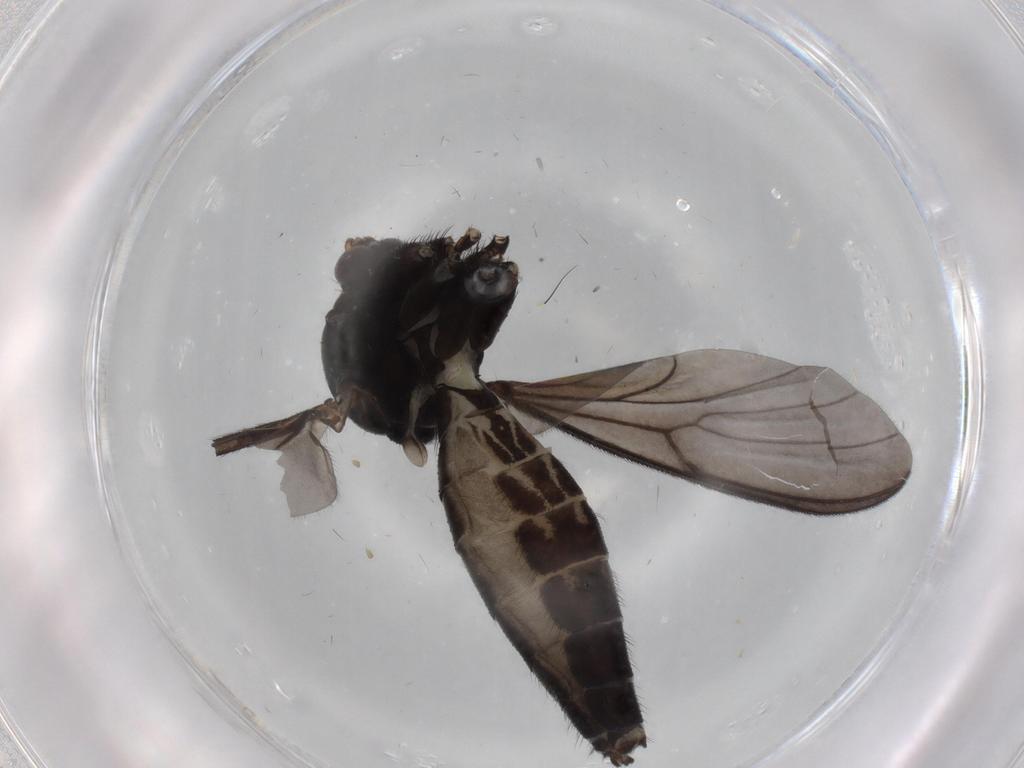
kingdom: Animalia
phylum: Arthropoda
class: Insecta
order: Diptera
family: Mycetophilidae
